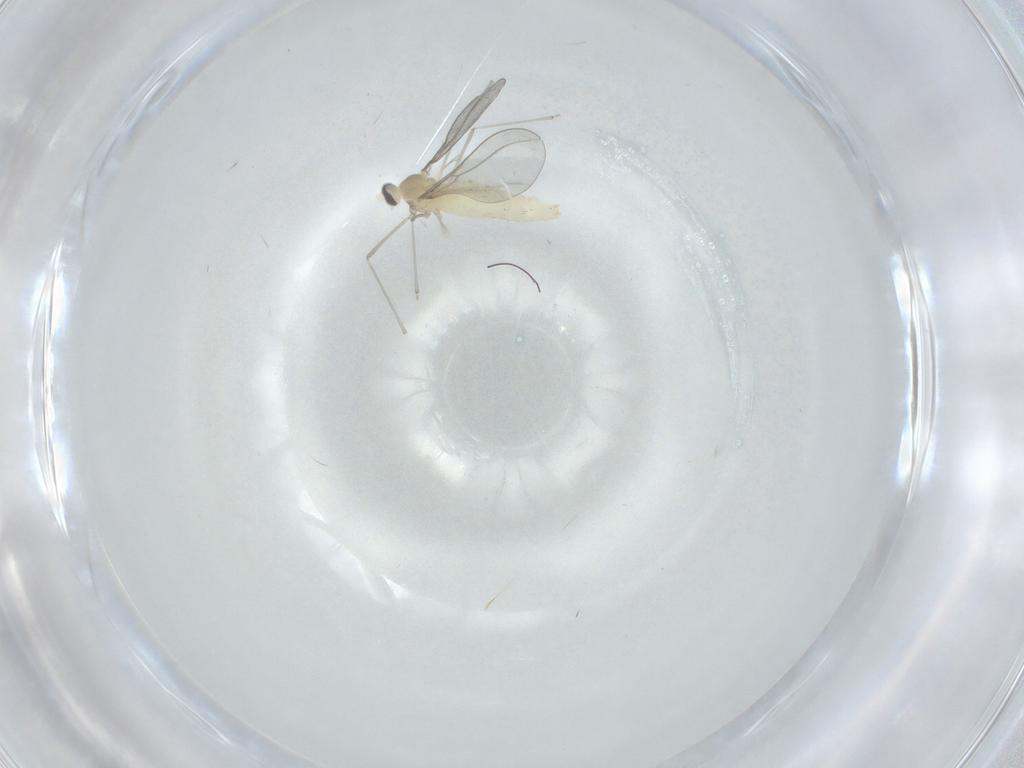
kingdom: Animalia
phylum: Arthropoda
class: Insecta
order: Diptera
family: Cecidomyiidae
